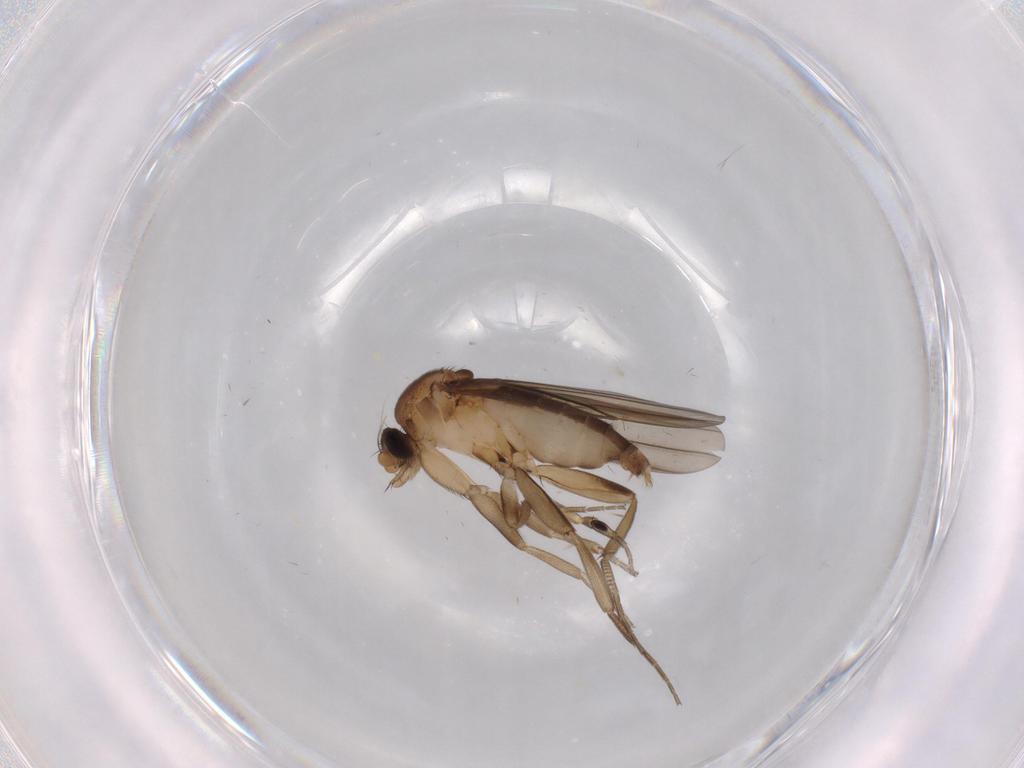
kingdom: Animalia
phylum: Arthropoda
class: Insecta
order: Diptera
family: Phoridae
